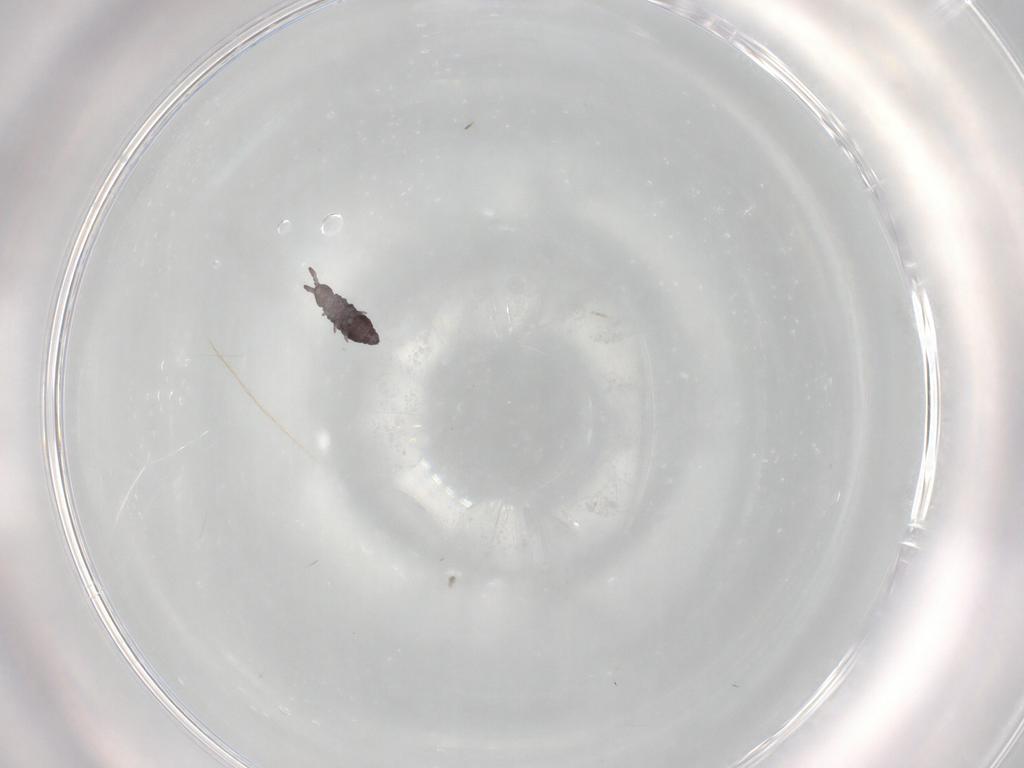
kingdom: Animalia
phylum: Arthropoda
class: Collembola
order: Poduromorpha
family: Hypogastruridae
